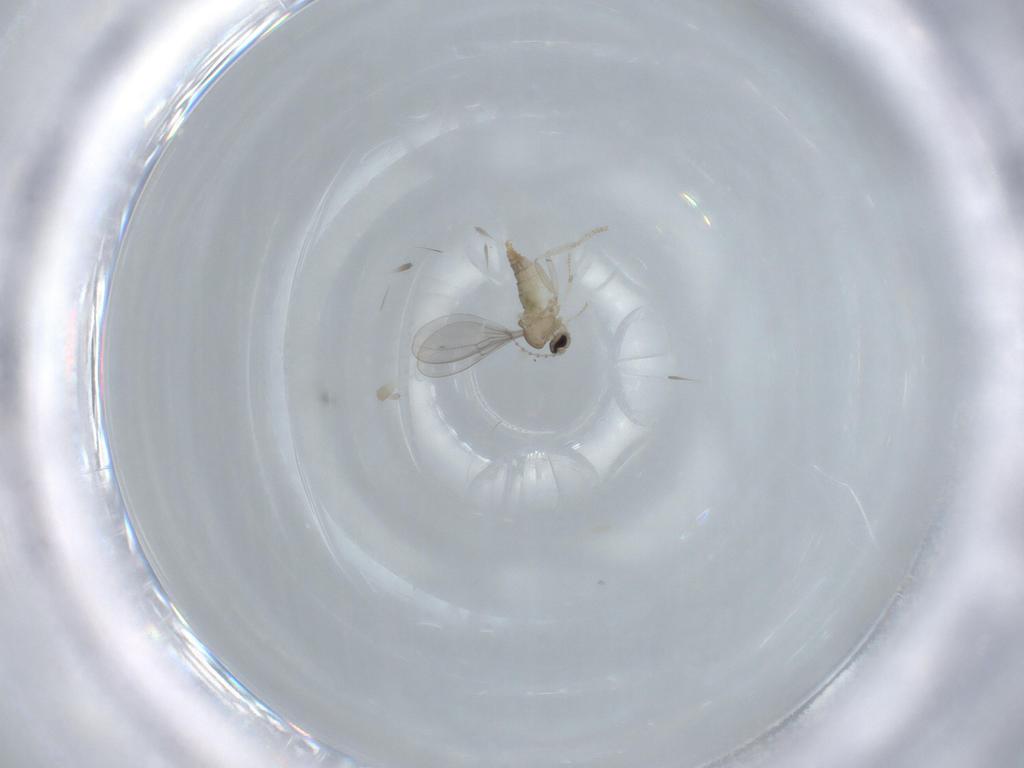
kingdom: Animalia
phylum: Arthropoda
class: Insecta
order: Diptera
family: Cecidomyiidae
